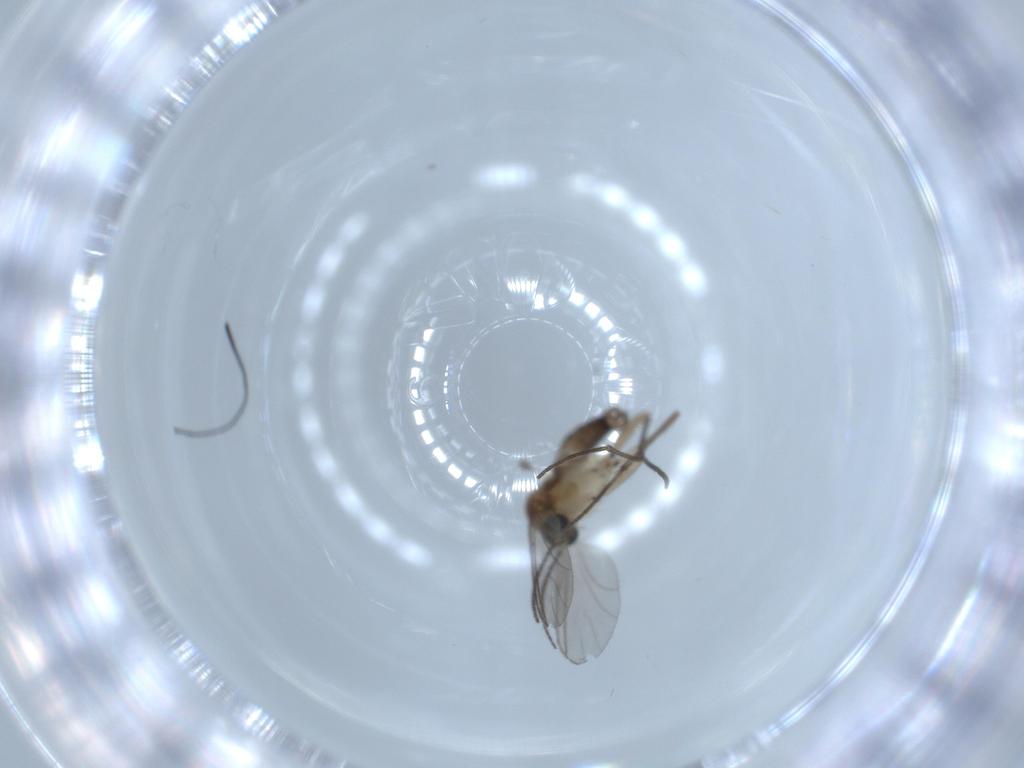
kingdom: Animalia
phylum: Arthropoda
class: Insecta
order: Diptera
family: Sciaridae
